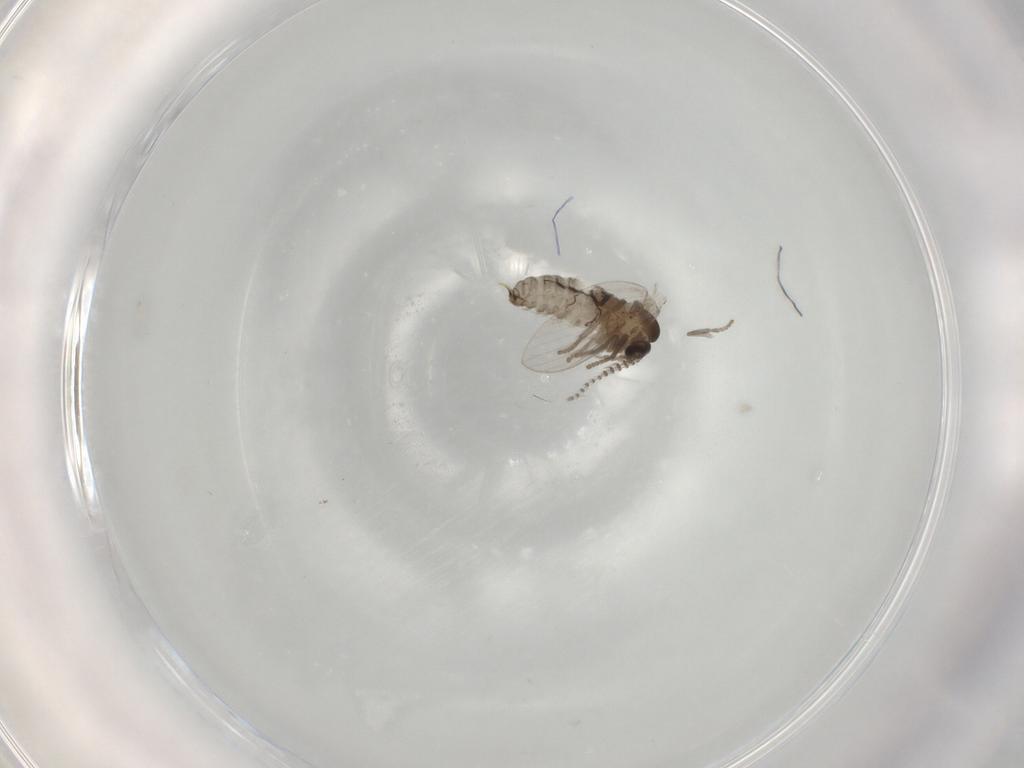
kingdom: Animalia
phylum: Arthropoda
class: Insecta
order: Diptera
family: Psychodidae
